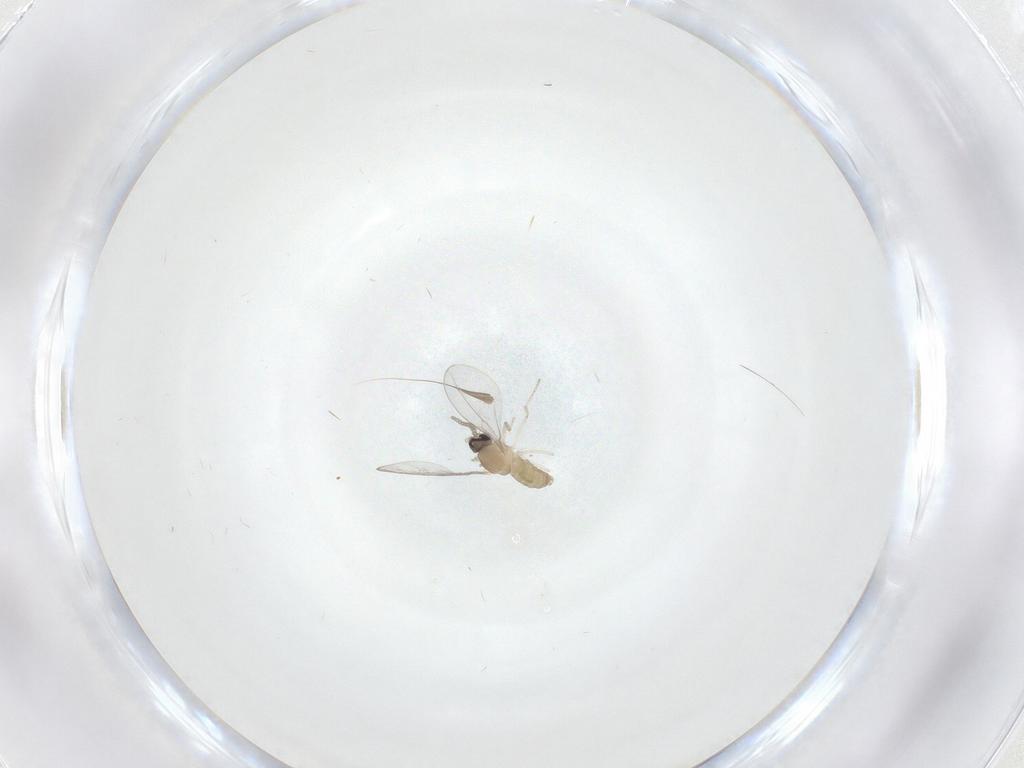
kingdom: Animalia
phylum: Arthropoda
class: Insecta
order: Diptera
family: Cecidomyiidae
